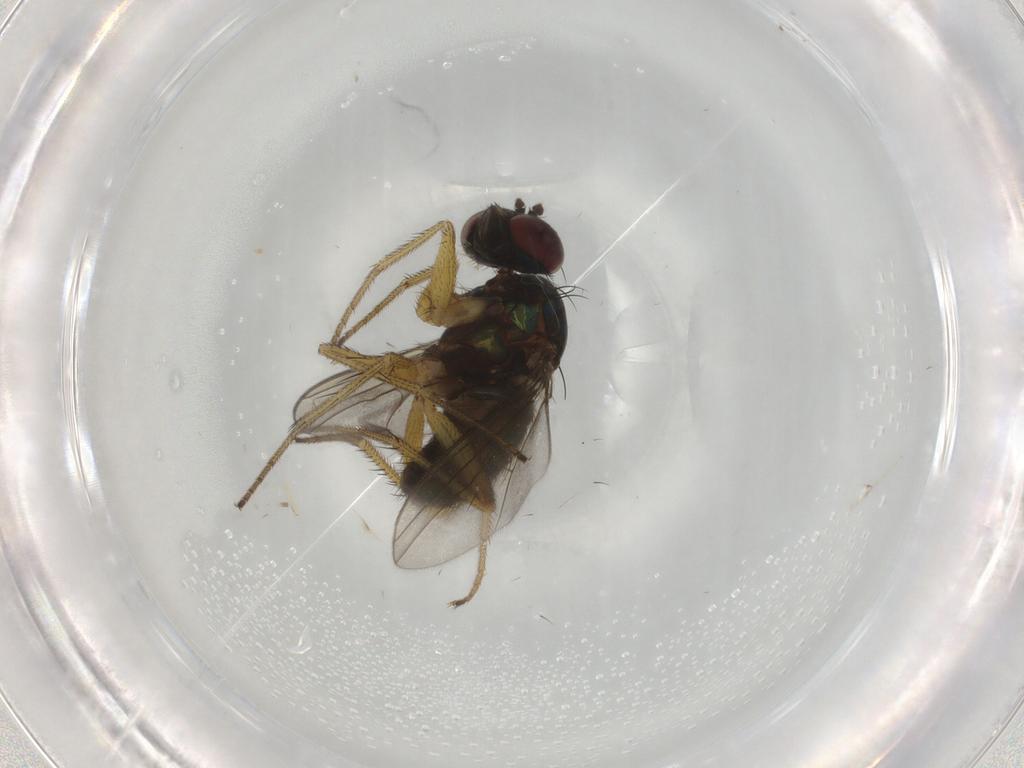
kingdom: Animalia
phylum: Arthropoda
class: Insecta
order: Diptera
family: Dolichopodidae
